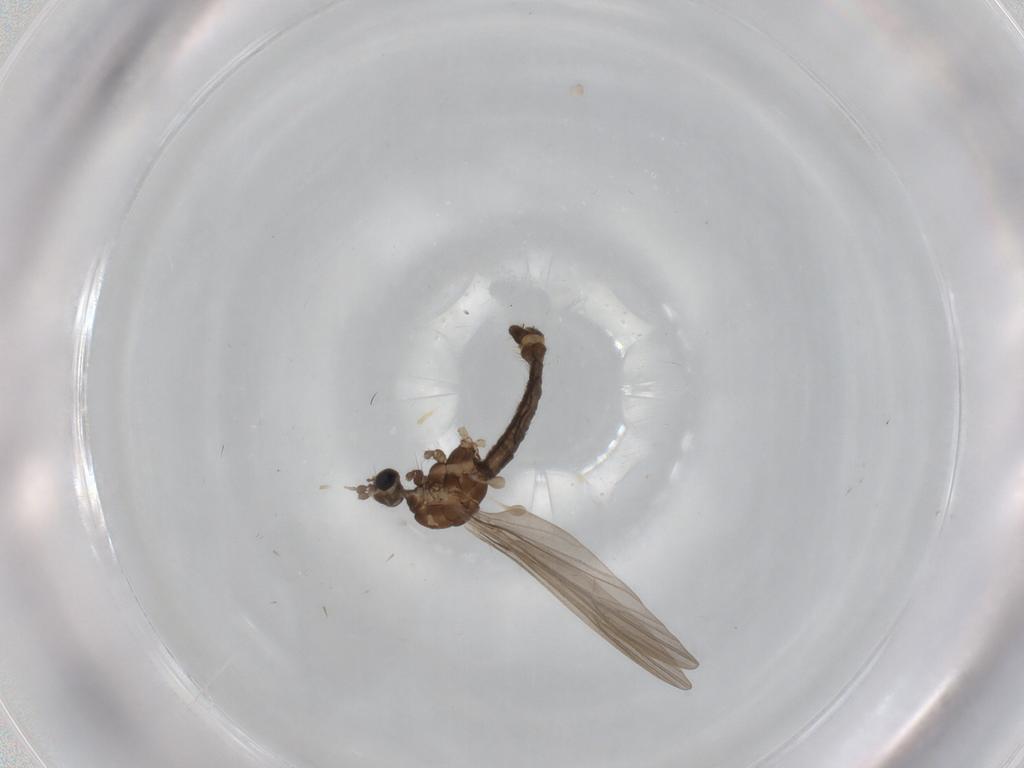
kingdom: Animalia
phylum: Arthropoda
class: Insecta
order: Diptera
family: Limoniidae
